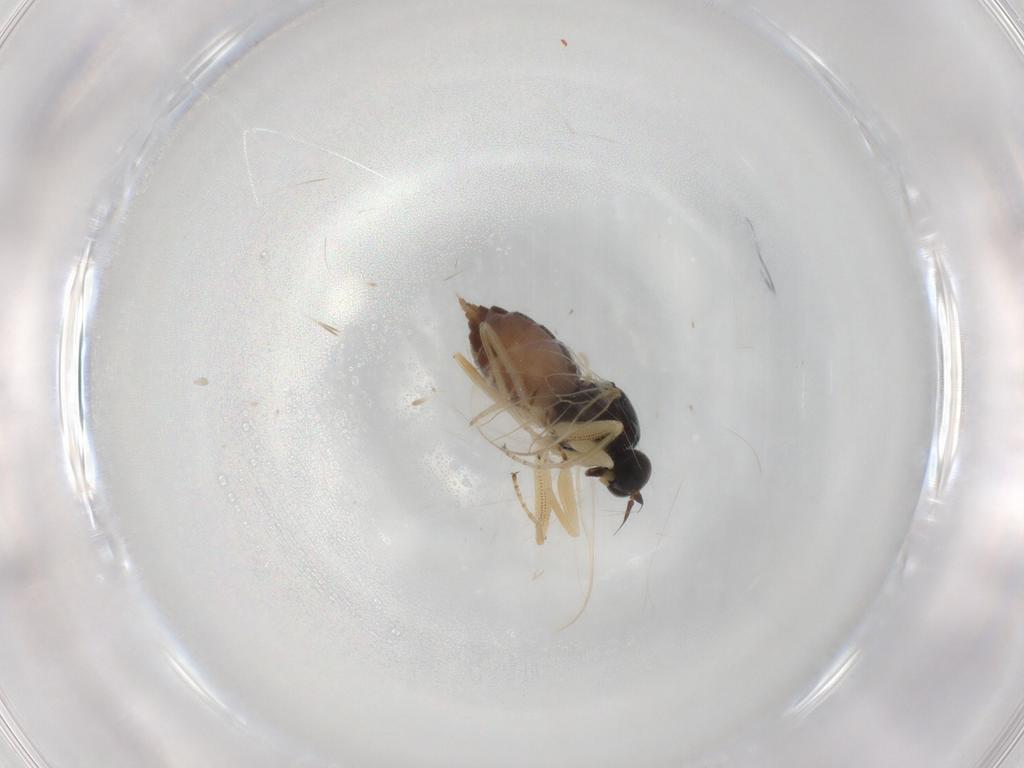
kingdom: Animalia
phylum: Arthropoda
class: Insecta
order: Diptera
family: Hybotidae
